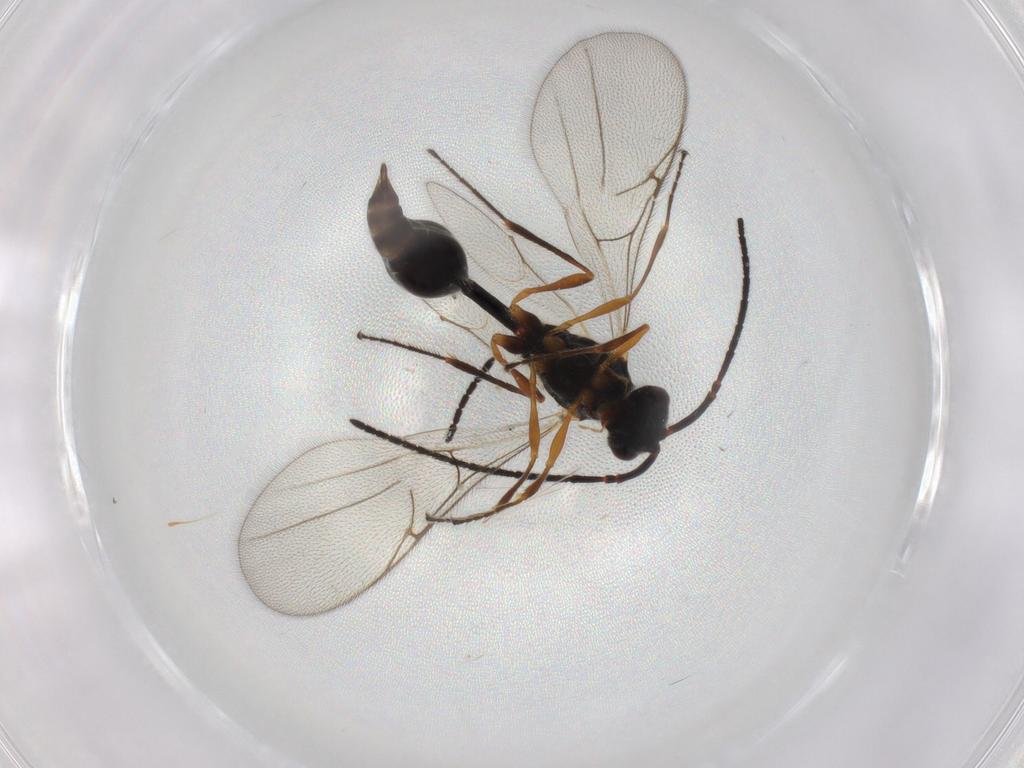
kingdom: Animalia
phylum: Arthropoda
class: Insecta
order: Hymenoptera
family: Diapriidae
